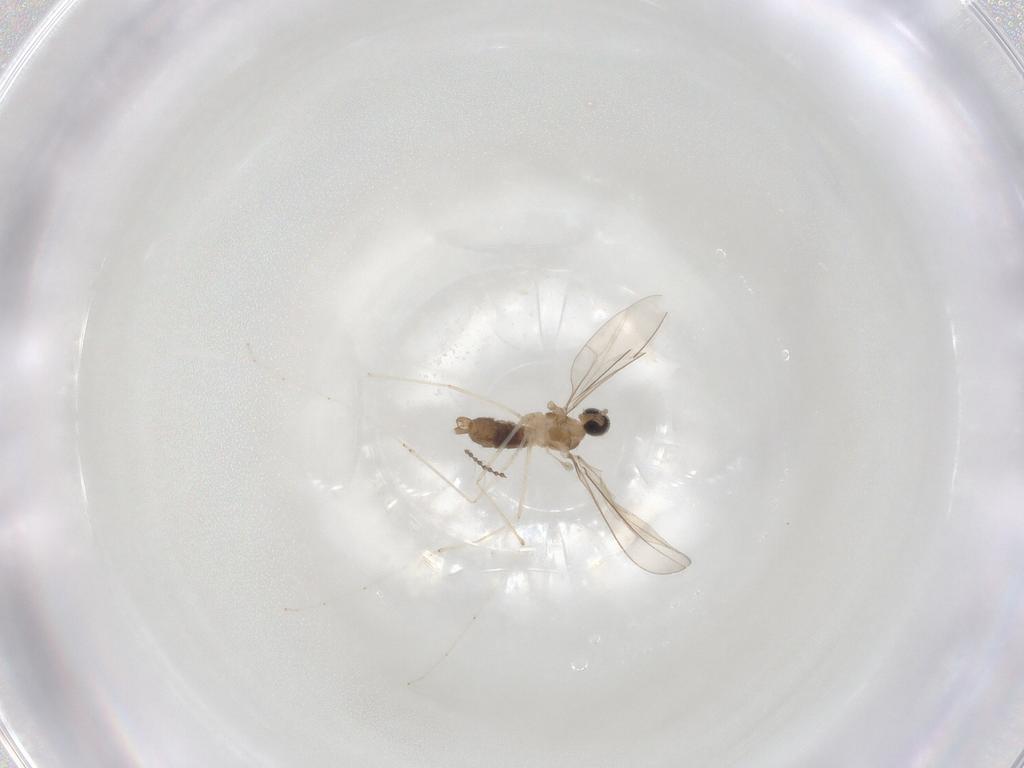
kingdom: Animalia
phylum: Arthropoda
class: Insecta
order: Diptera
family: Cecidomyiidae
